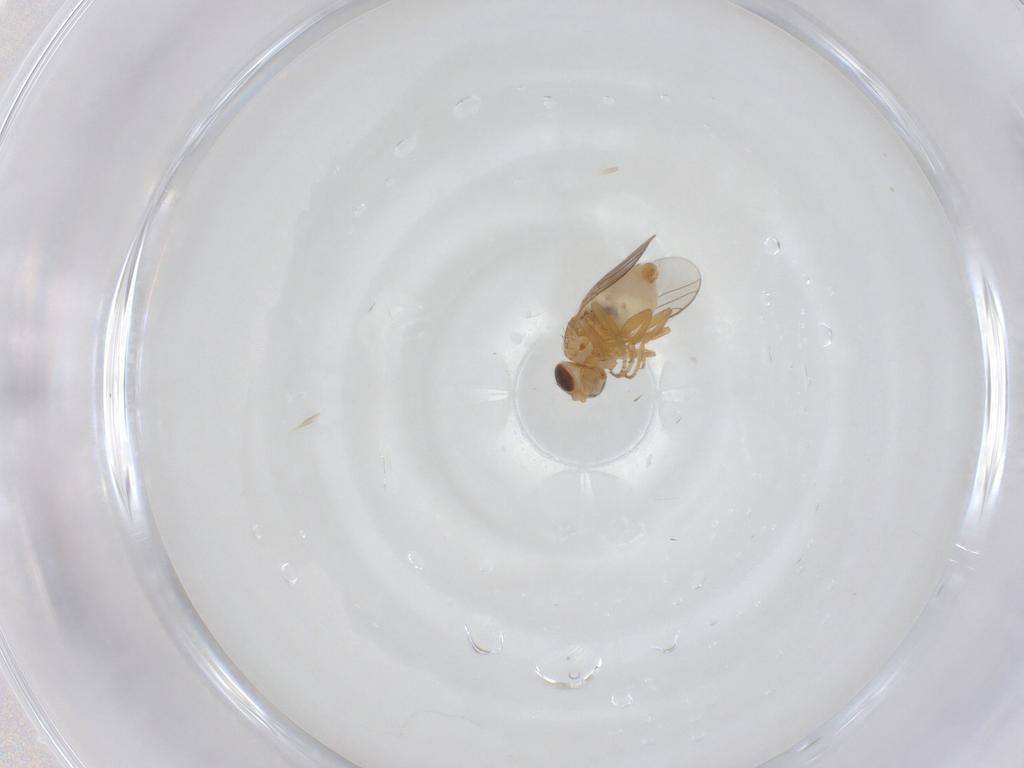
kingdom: Animalia
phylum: Arthropoda
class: Insecta
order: Diptera
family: Chloropidae
